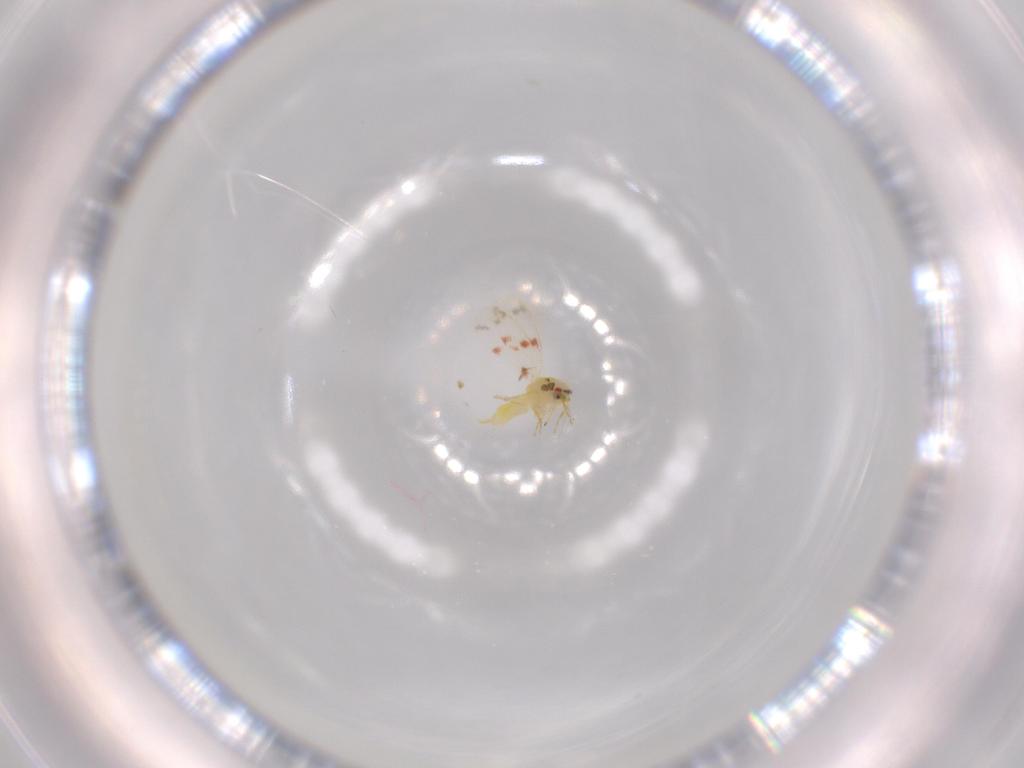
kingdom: Animalia
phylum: Arthropoda
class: Insecta
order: Hemiptera
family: Aleyrodidae
